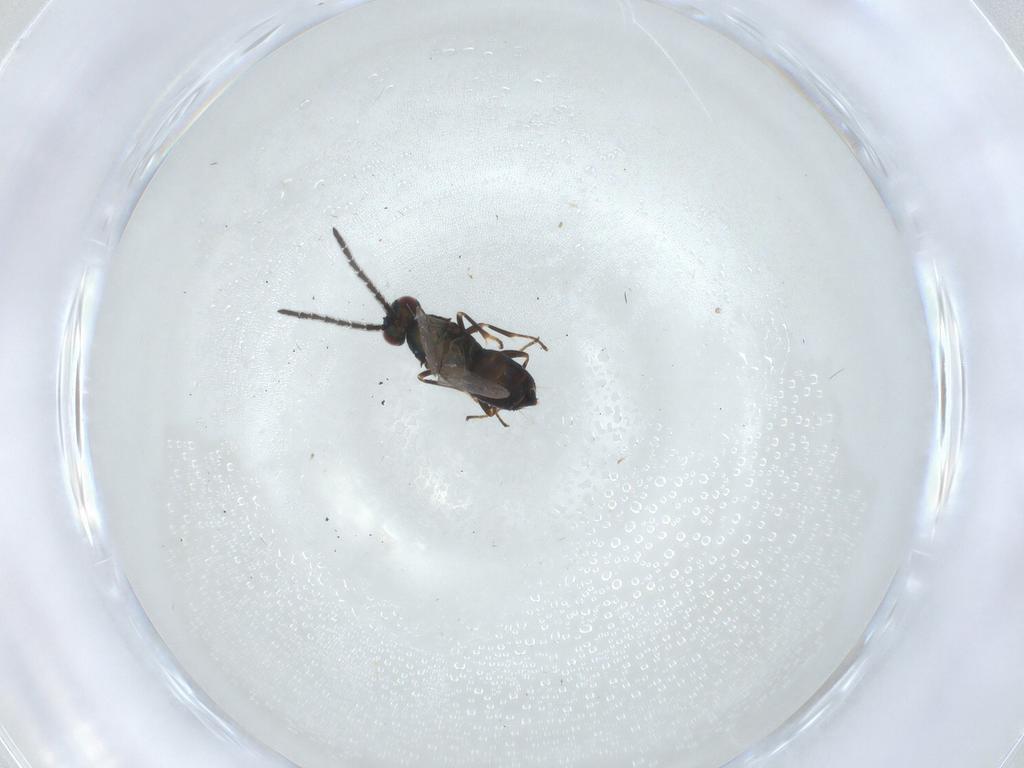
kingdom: Animalia
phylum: Arthropoda
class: Insecta
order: Hymenoptera
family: Encyrtidae
